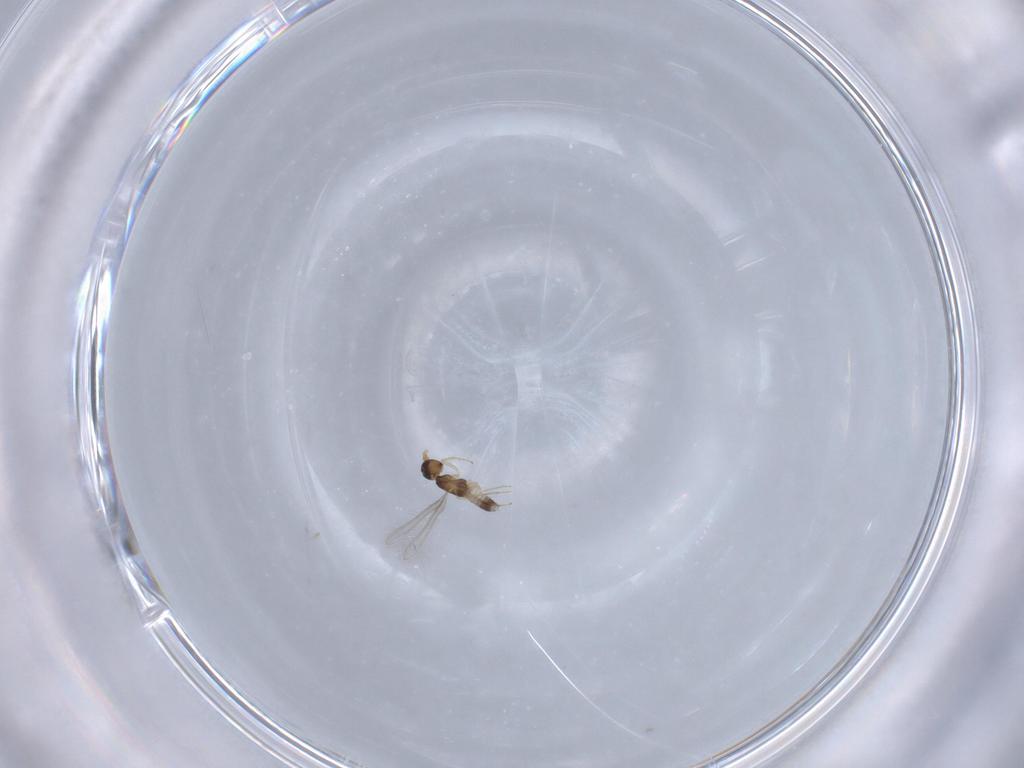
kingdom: Animalia
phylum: Arthropoda
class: Insecta
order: Hymenoptera
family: Mymaridae
